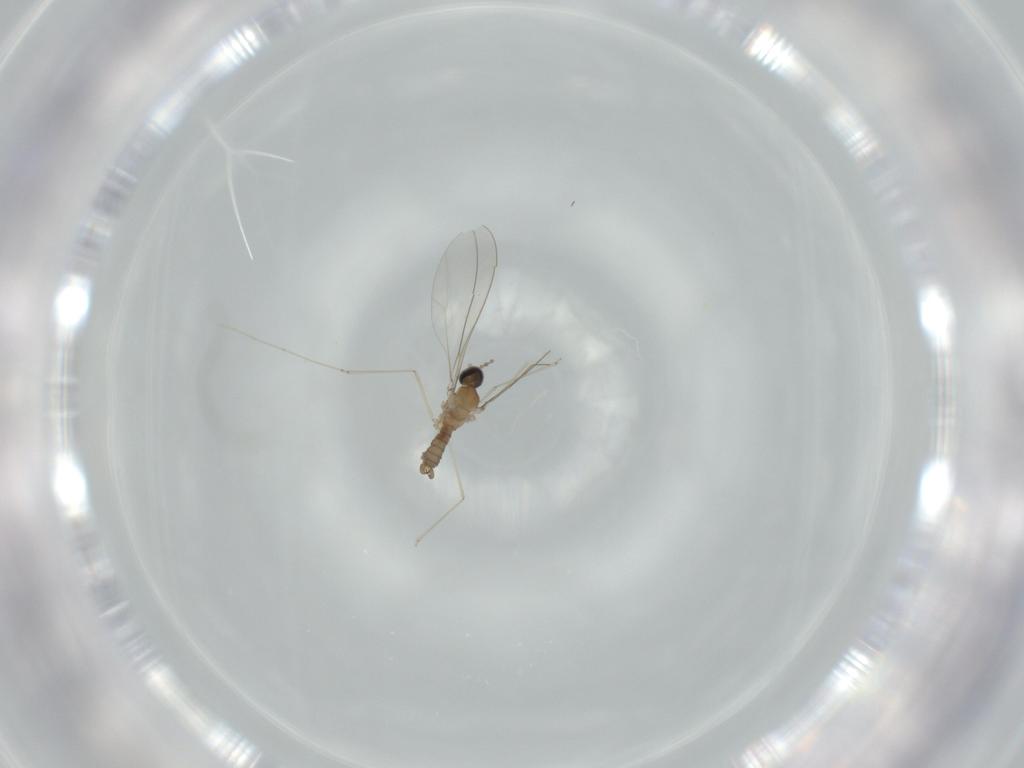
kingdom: Animalia
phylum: Arthropoda
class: Insecta
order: Diptera
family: Cecidomyiidae
